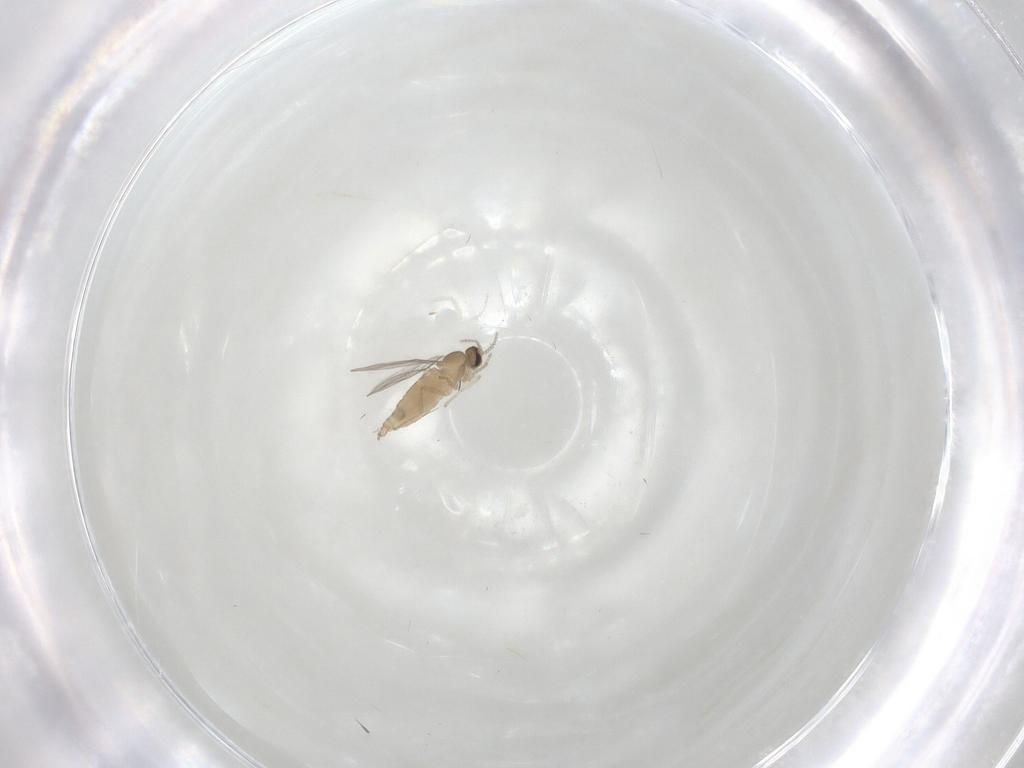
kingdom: Animalia
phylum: Arthropoda
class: Insecta
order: Diptera
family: Cecidomyiidae
